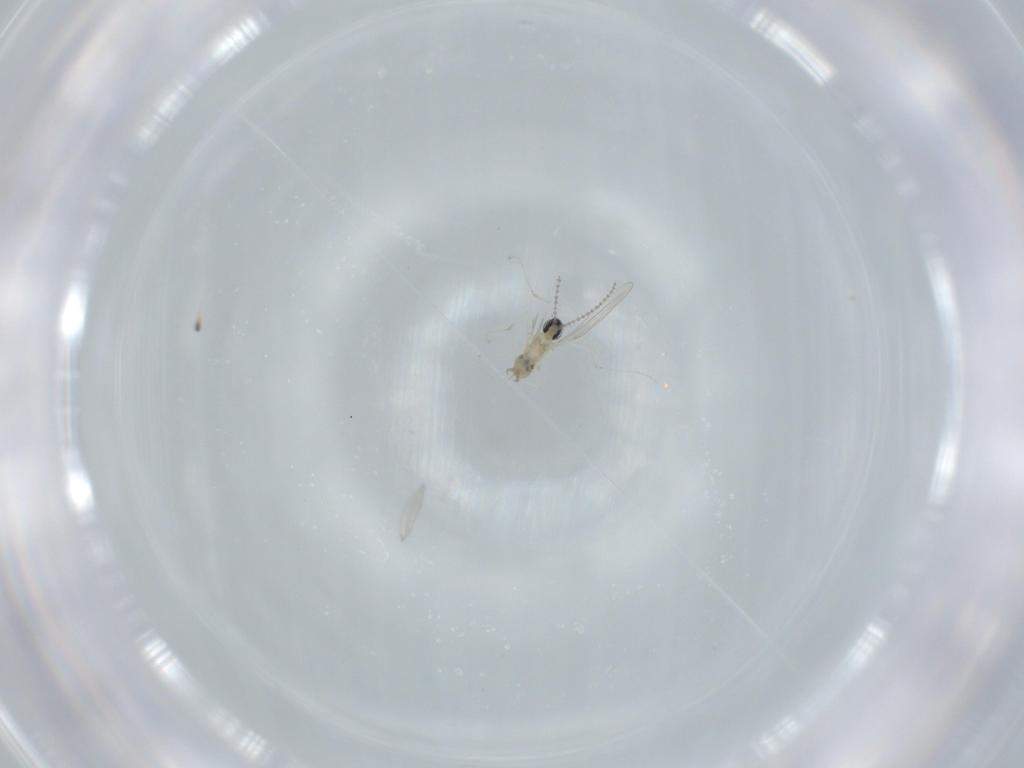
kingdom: Animalia
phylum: Arthropoda
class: Insecta
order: Diptera
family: Cecidomyiidae
